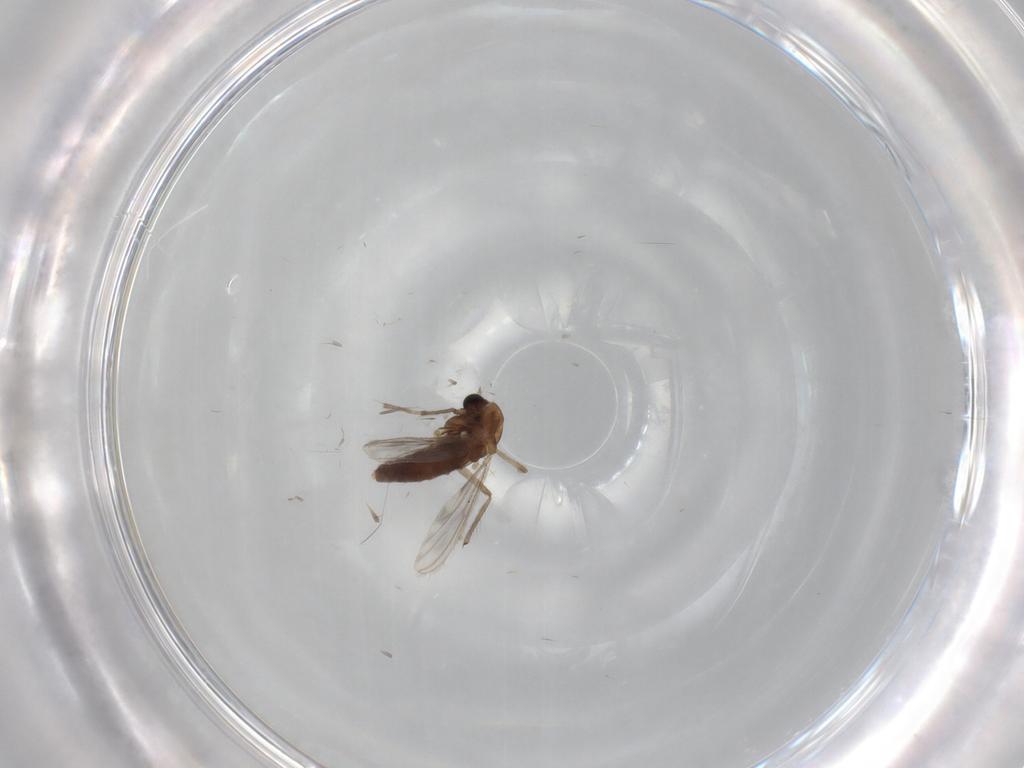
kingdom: Animalia
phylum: Arthropoda
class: Insecta
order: Diptera
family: Chironomidae
